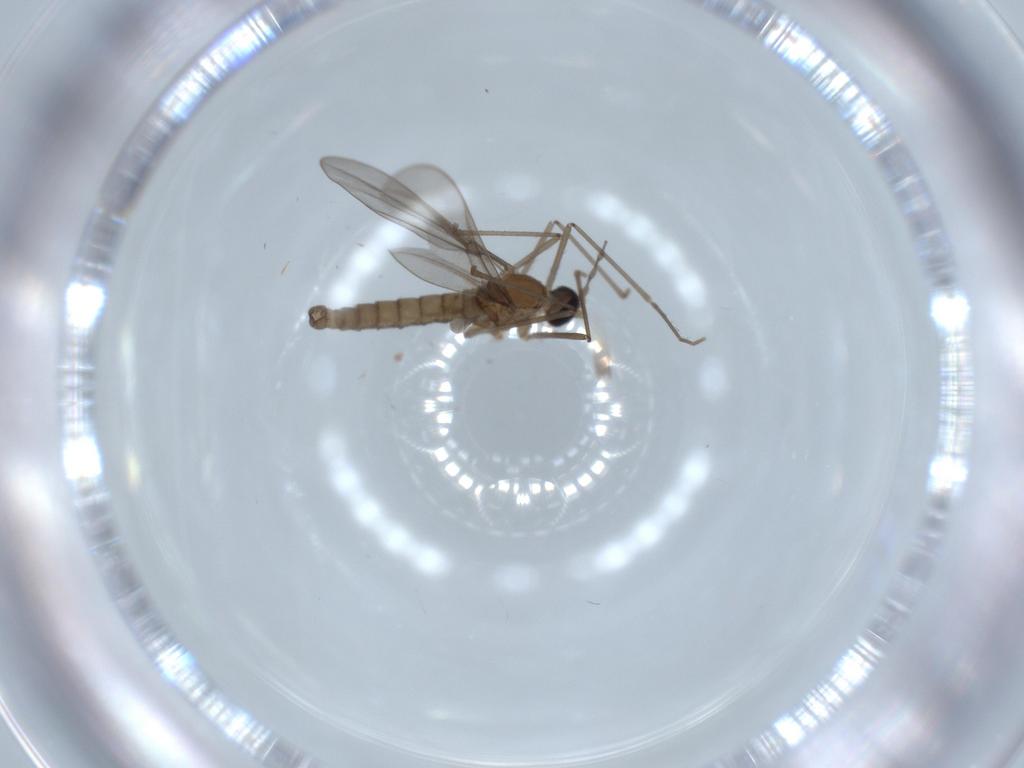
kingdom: Animalia
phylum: Arthropoda
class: Insecta
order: Diptera
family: Cecidomyiidae
